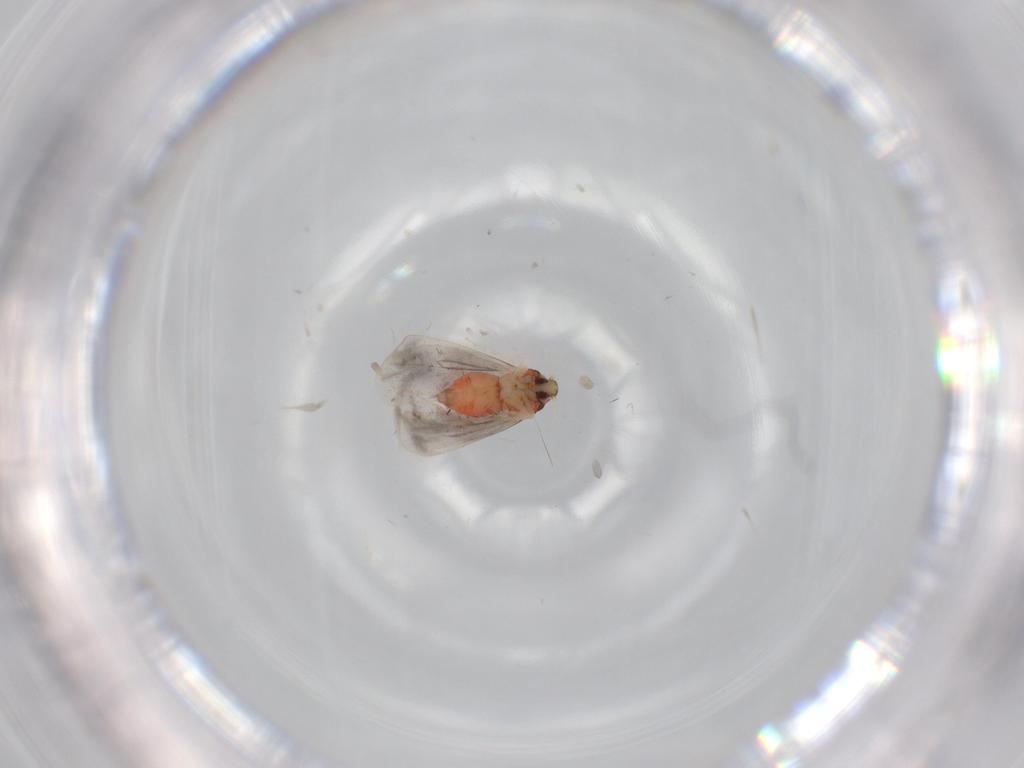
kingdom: Animalia
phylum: Arthropoda
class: Insecta
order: Hemiptera
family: Aleyrodidae
